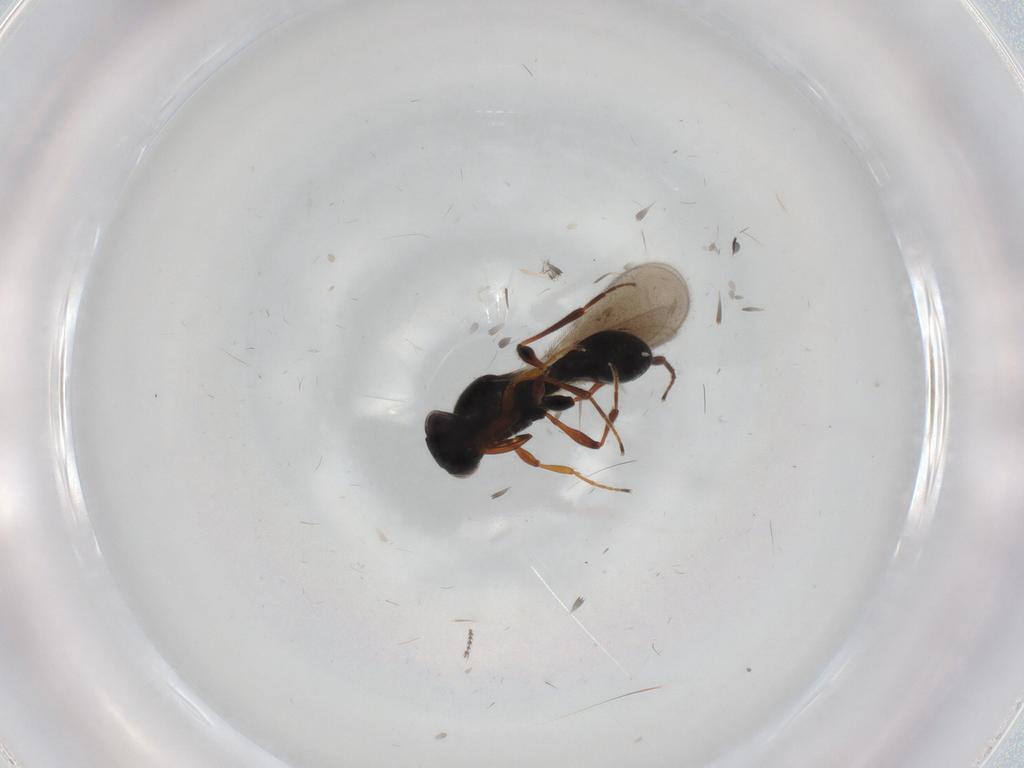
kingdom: Animalia
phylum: Arthropoda
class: Insecta
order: Hymenoptera
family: Platygastridae
